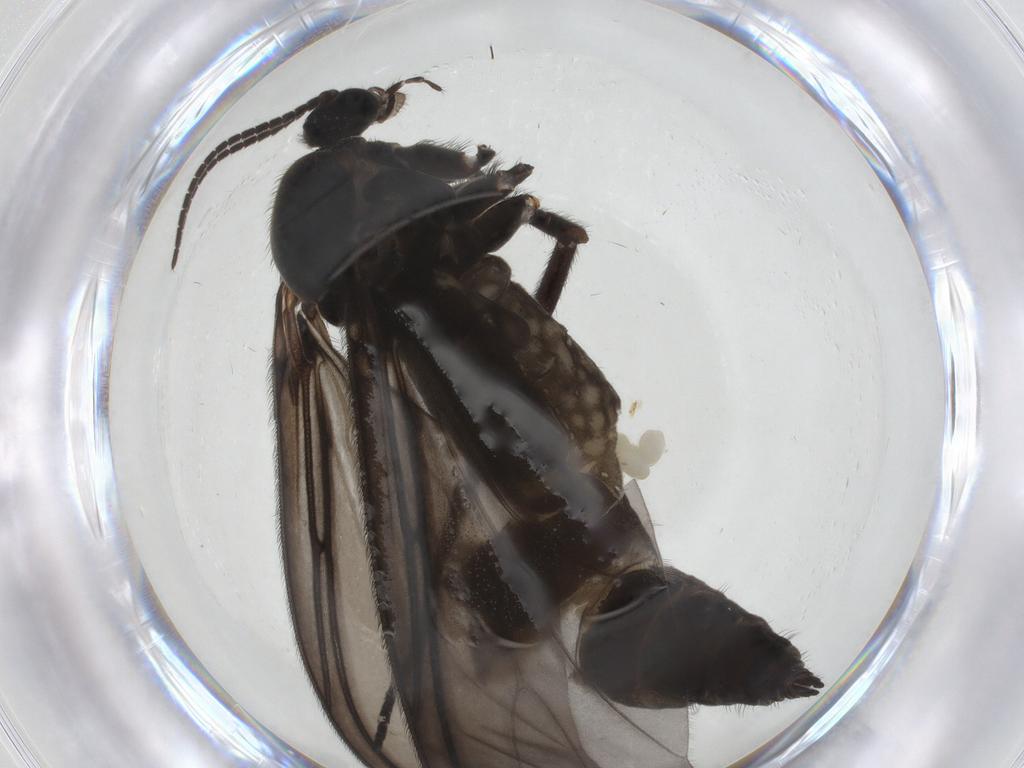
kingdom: Animalia
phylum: Arthropoda
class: Insecta
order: Diptera
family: Sciaridae
